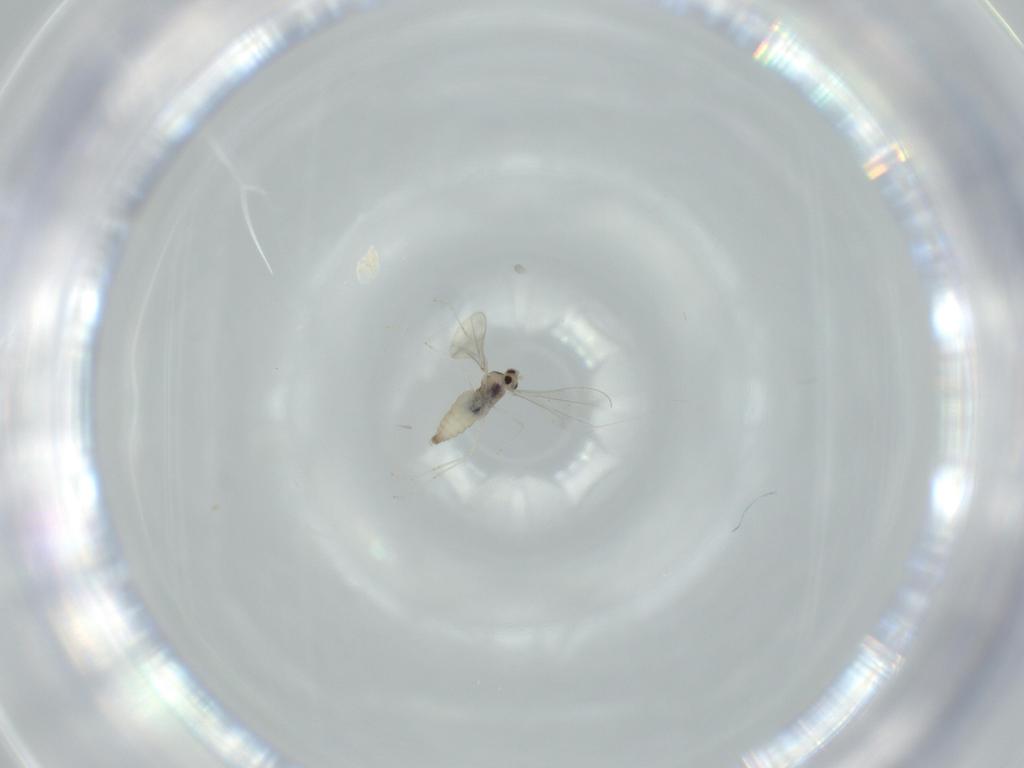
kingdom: Animalia
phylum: Arthropoda
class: Insecta
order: Diptera
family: Cecidomyiidae
